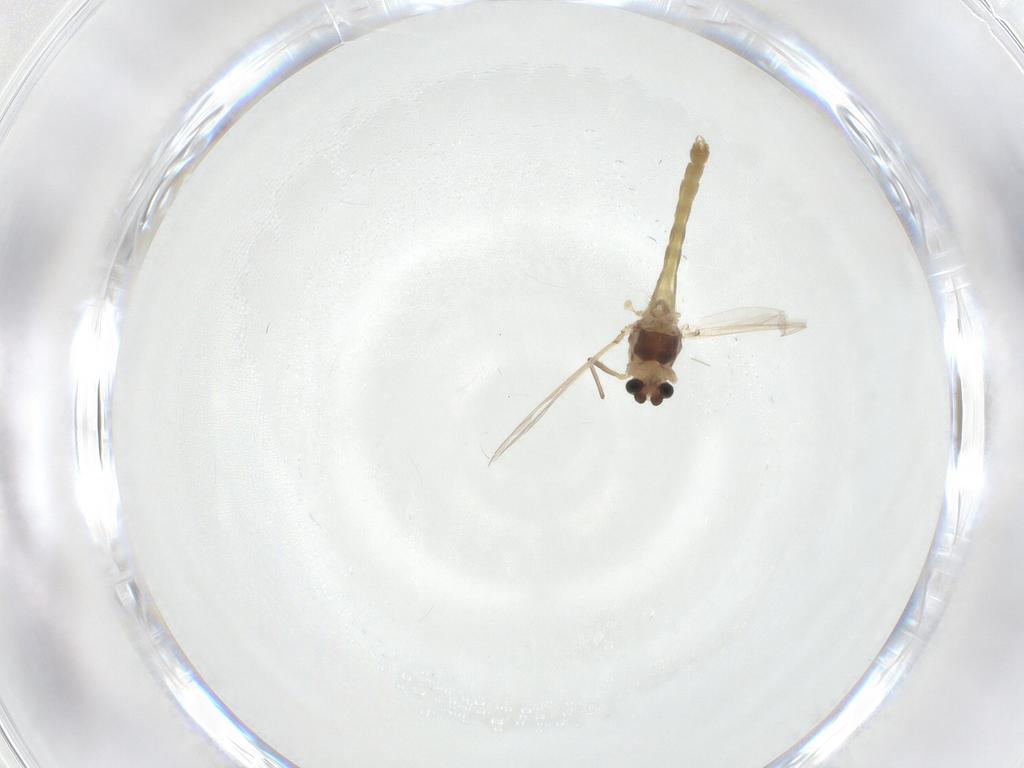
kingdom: Animalia
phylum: Arthropoda
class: Insecta
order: Diptera
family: Chironomidae
